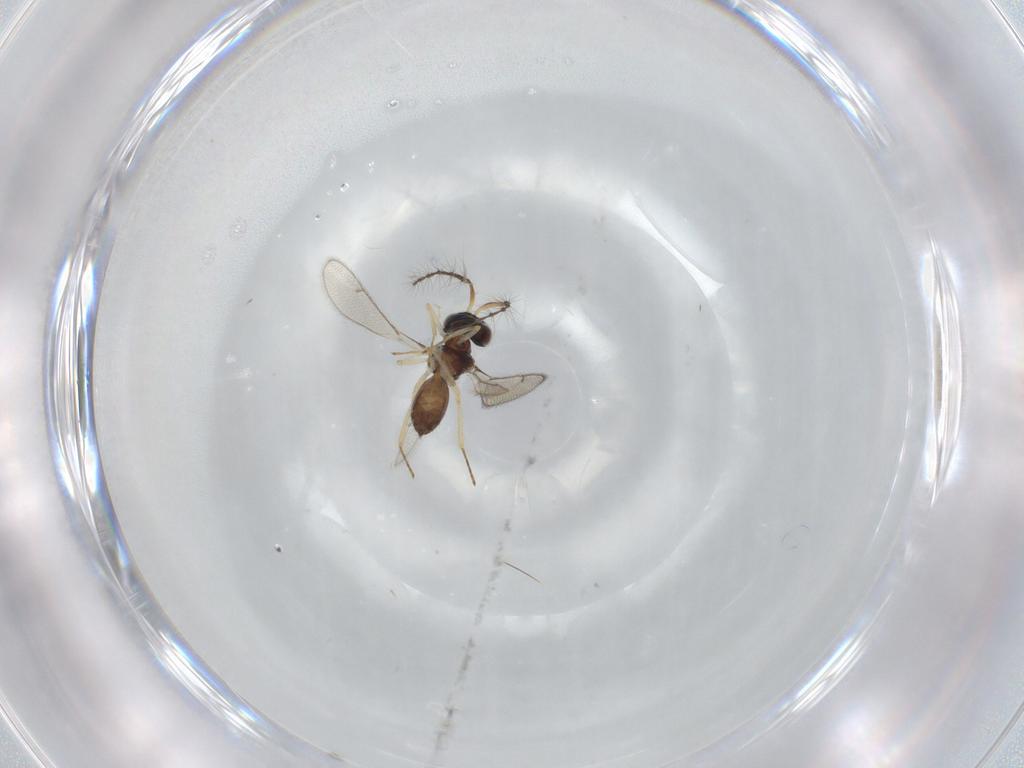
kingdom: Animalia
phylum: Arthropoda
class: Insecta
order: Hymenoptera
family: Eulophidae
